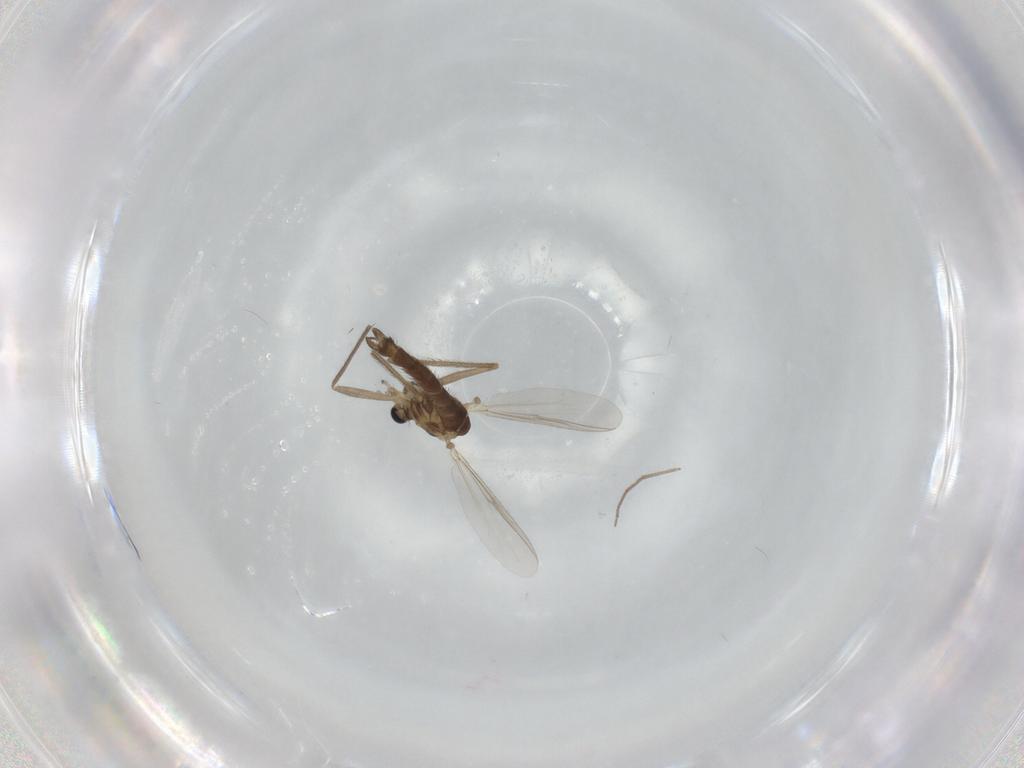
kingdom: Animalia
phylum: Arthropoda
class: Insecta
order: Diptera
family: Chironomidae
